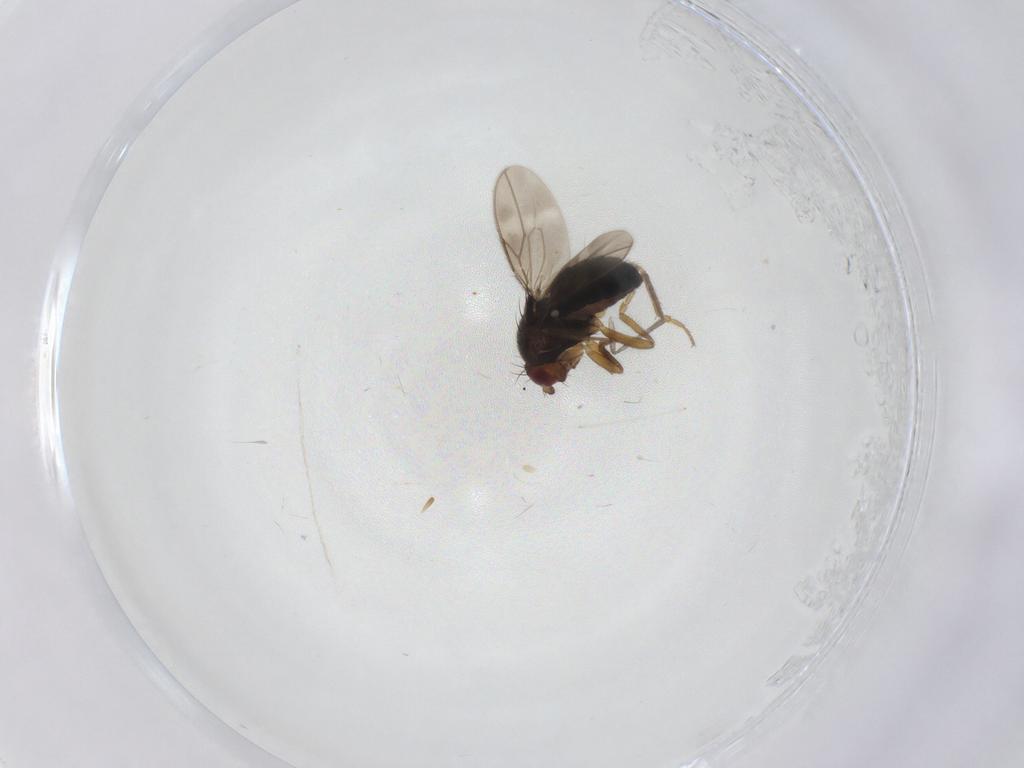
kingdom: Animalia
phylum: Arthropoda
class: Insecta
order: Diptera
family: Sphaeroceridae
